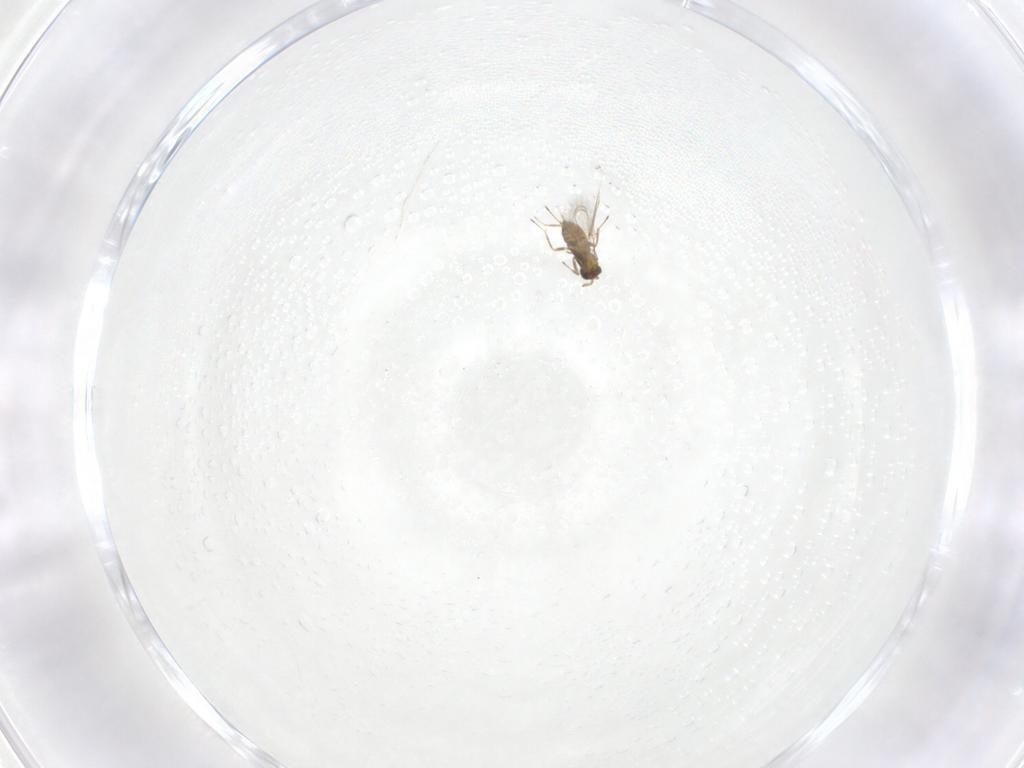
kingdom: Animalia
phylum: Arthropoda
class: Insecta
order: Hymenoptera
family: Trichogrammatidae
